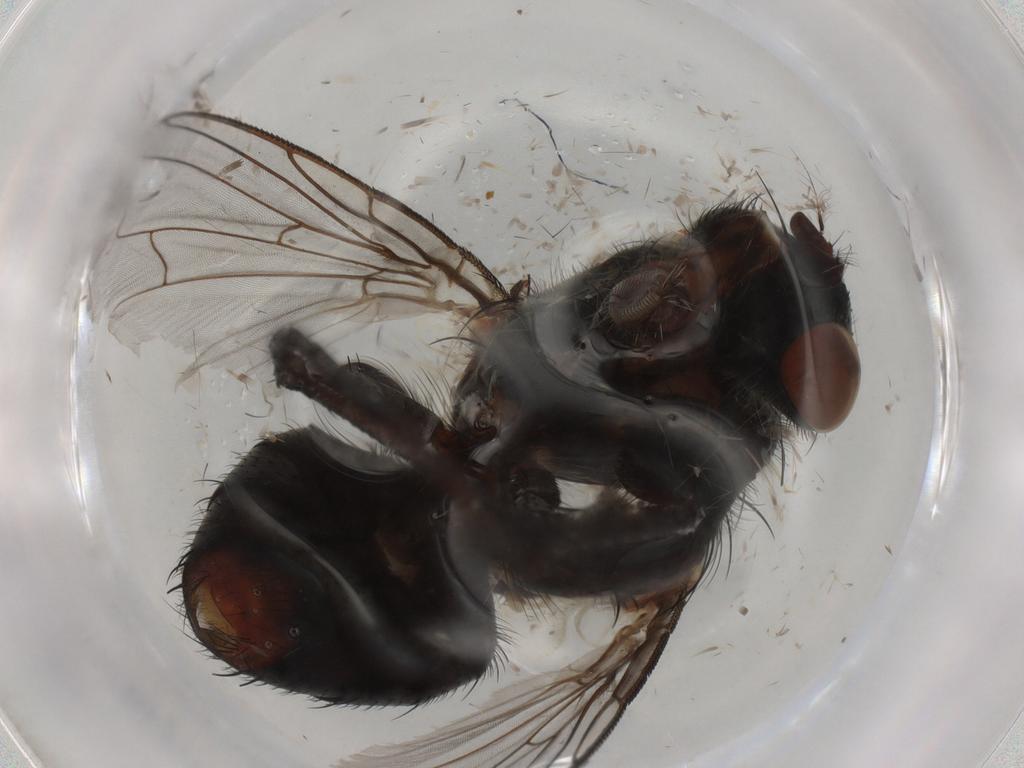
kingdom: Animalia
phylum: Arthropoda
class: Insecta
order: Diptera
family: Sarcophagidae
